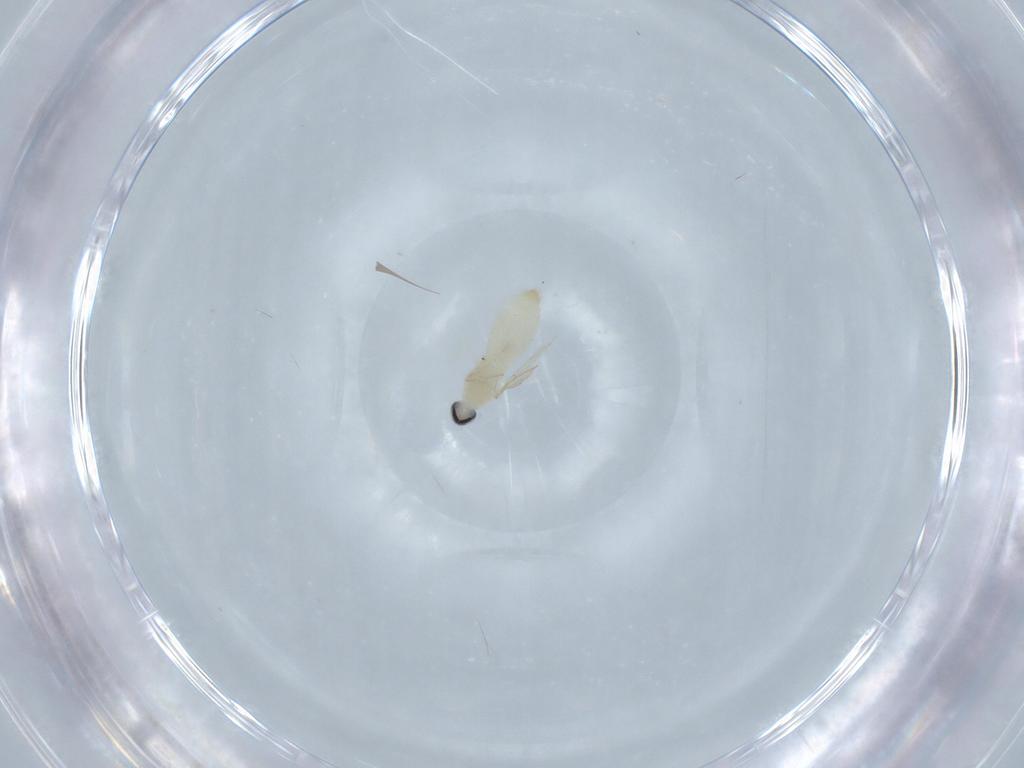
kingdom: Animalia
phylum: Arthropoda
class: Insecta
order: Diptera
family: Cecidomyiidae
